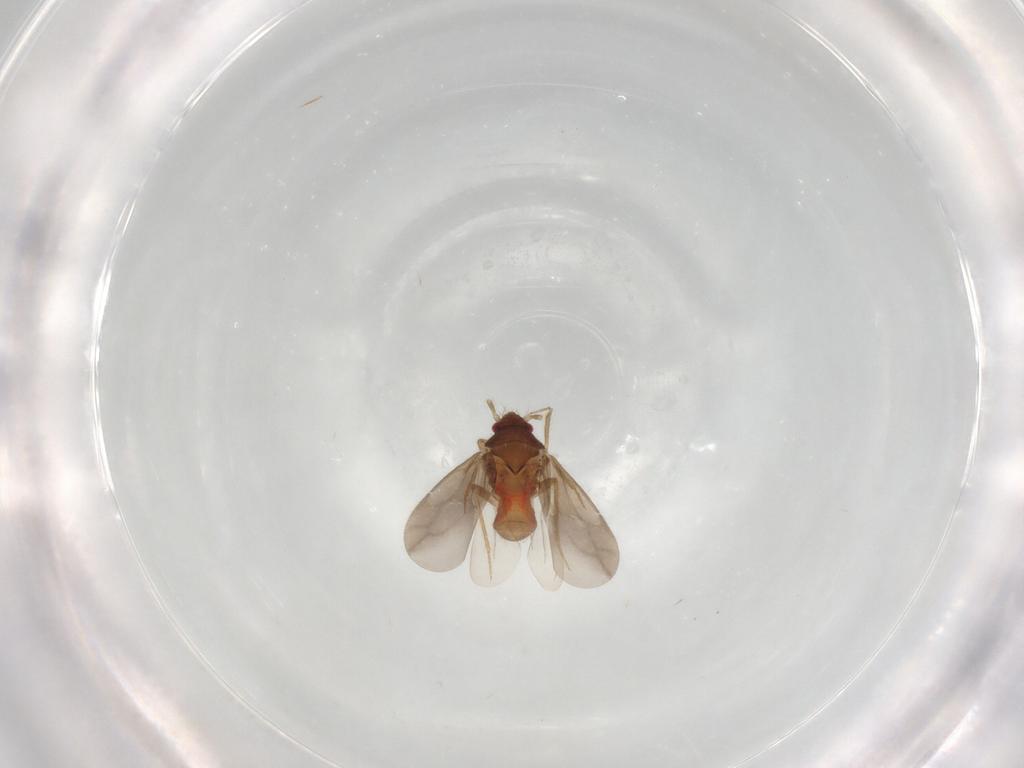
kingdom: Animalia
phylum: Arthropoda
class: Insecta
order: Hemiptera
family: Ceratocombidae
